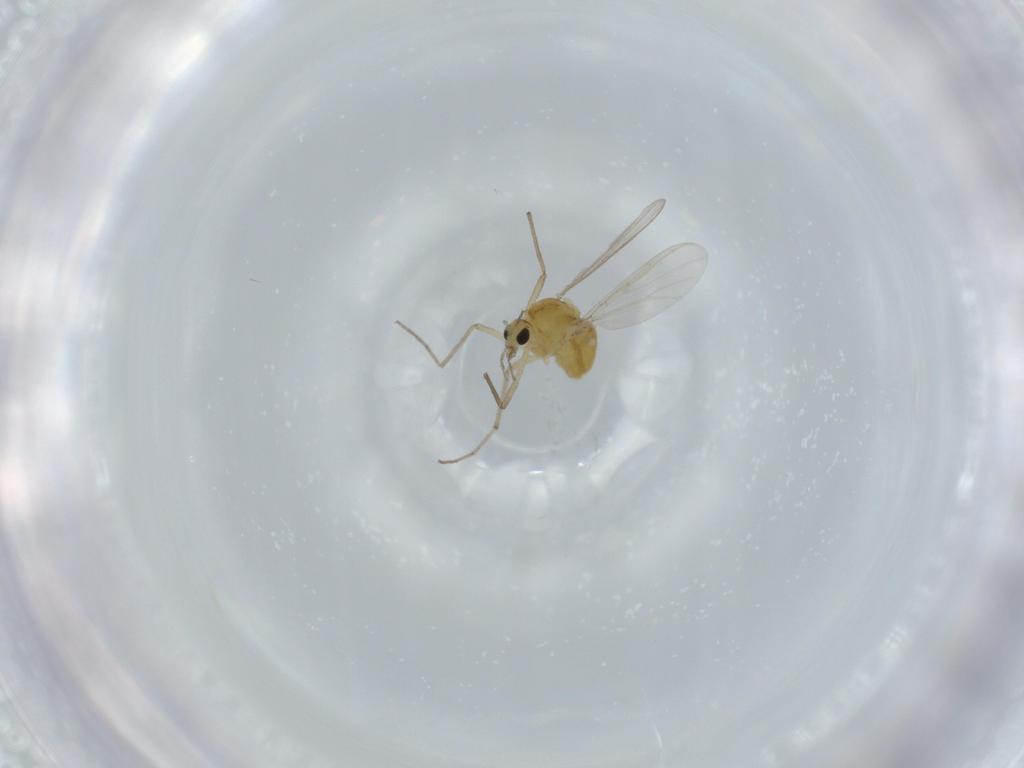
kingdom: Animalia
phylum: Arthropoda
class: Insecta
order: Diptera
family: Chironomidae
